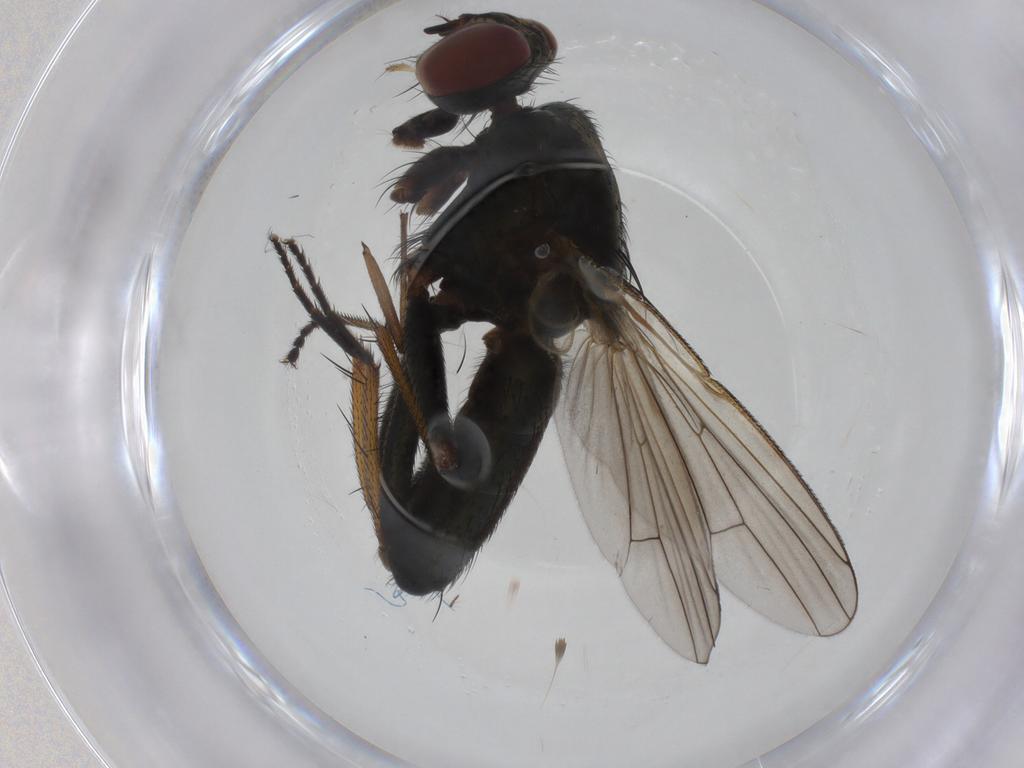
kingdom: Animalia
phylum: Arthropoda
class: Insecta
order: Diptera
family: Muscidae
